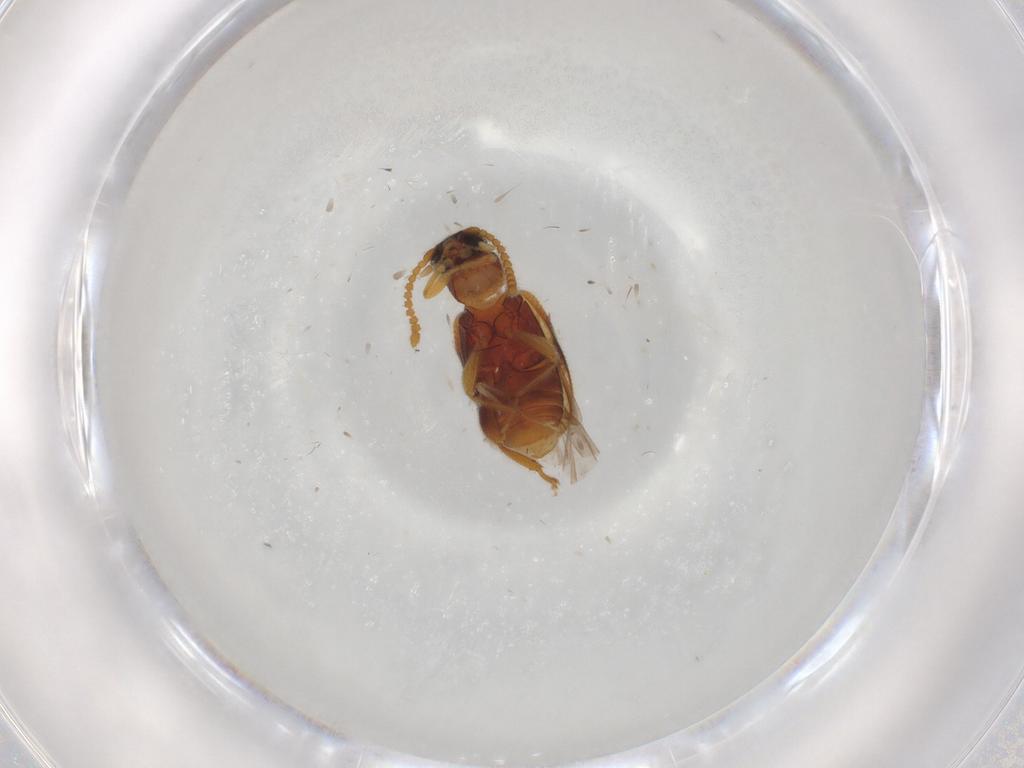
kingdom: Animalia
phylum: Arthropoda
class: Insecta
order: Coleoptera
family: Aderidae
